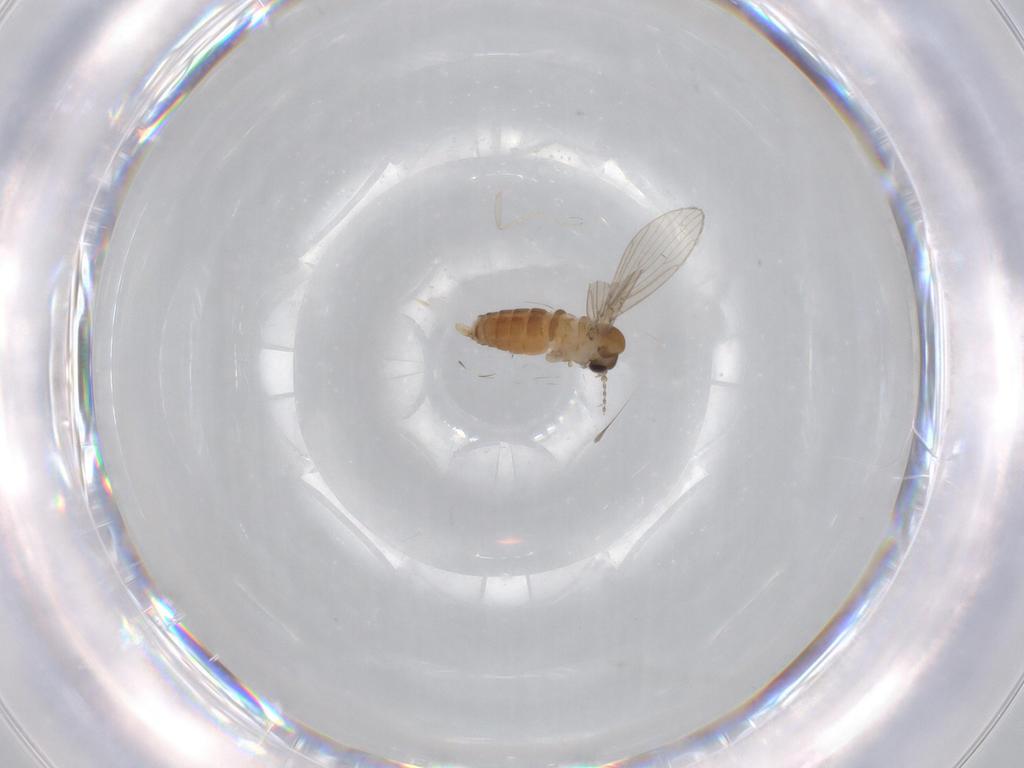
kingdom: Animalia
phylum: Arthropoda
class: Insecta
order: Diptera
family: Psychodidae
